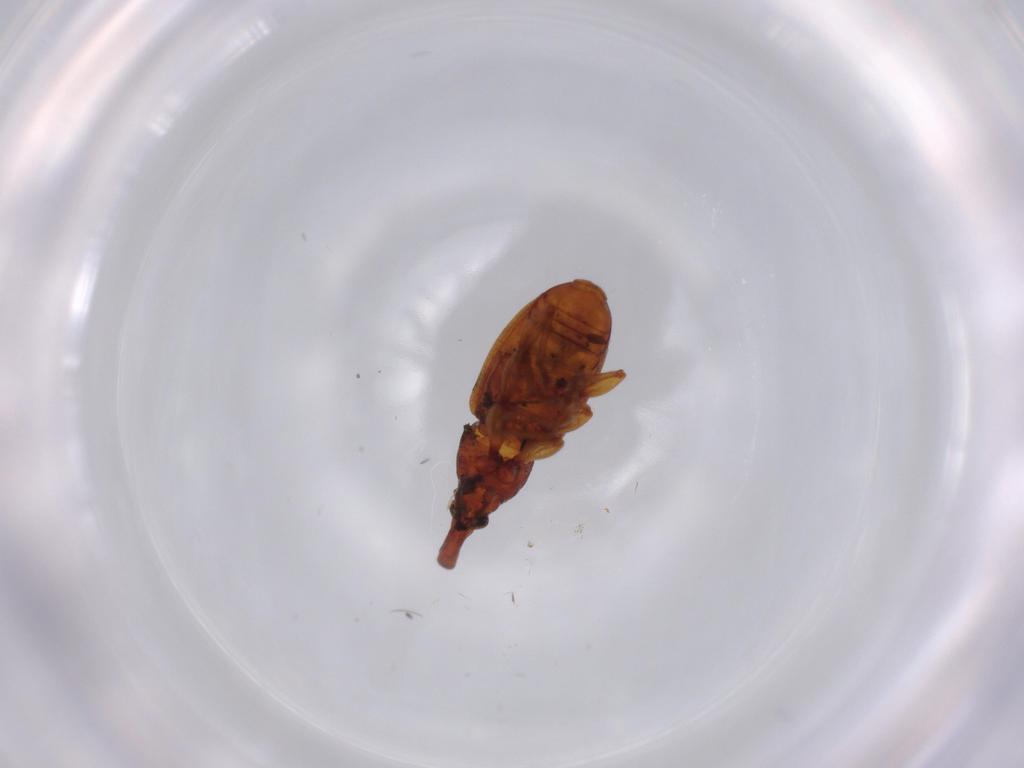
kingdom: Animalia
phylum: Arthropoda
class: Insecta
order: Coleoptera
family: Curculionidae
